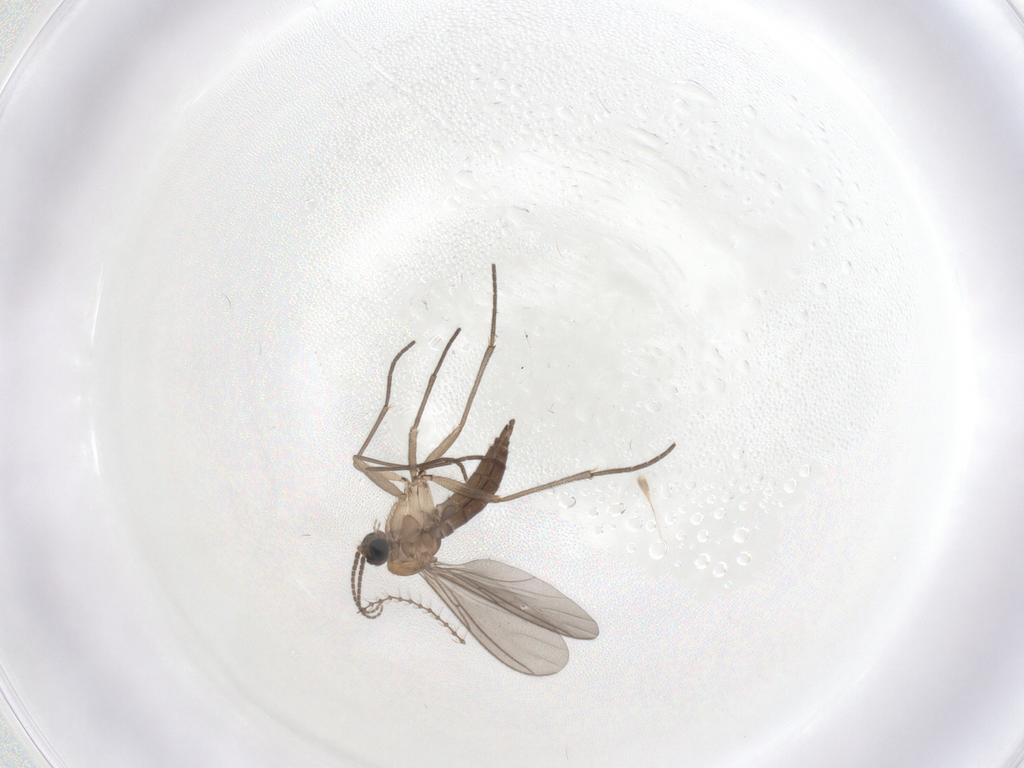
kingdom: Animalia
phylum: Arthropoda
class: Insecta
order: Diptera
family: Sciaridae
